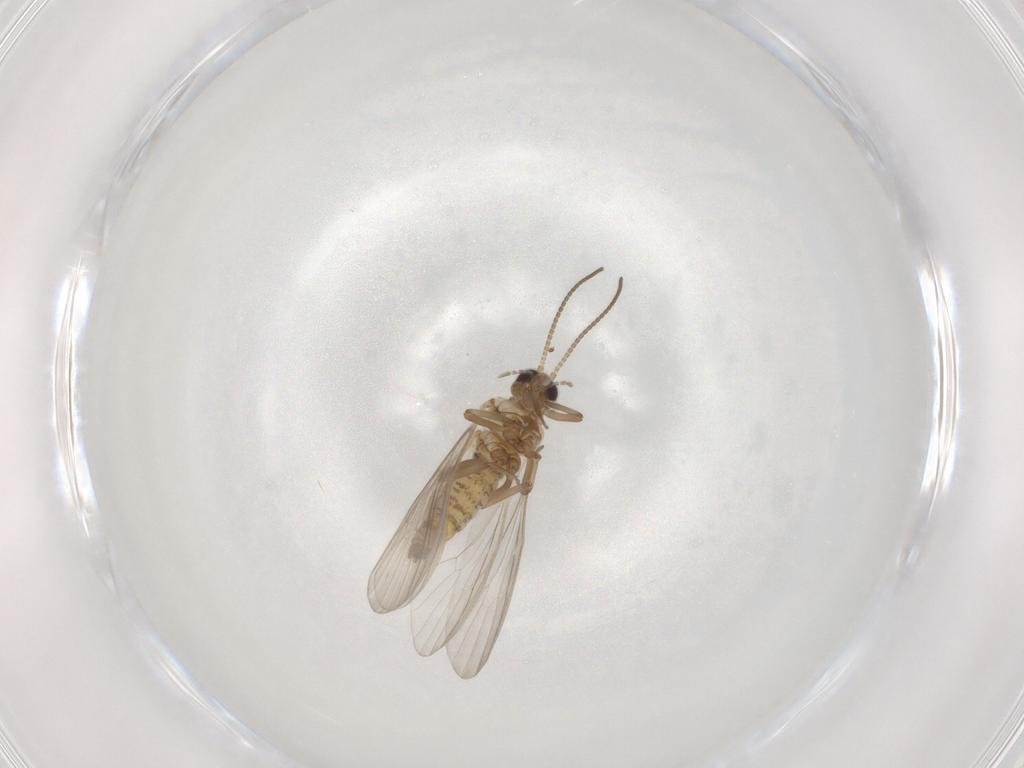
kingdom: Animalia
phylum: Arthropoda
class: Insecta
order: Neuroptera
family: Coniopterygidae
